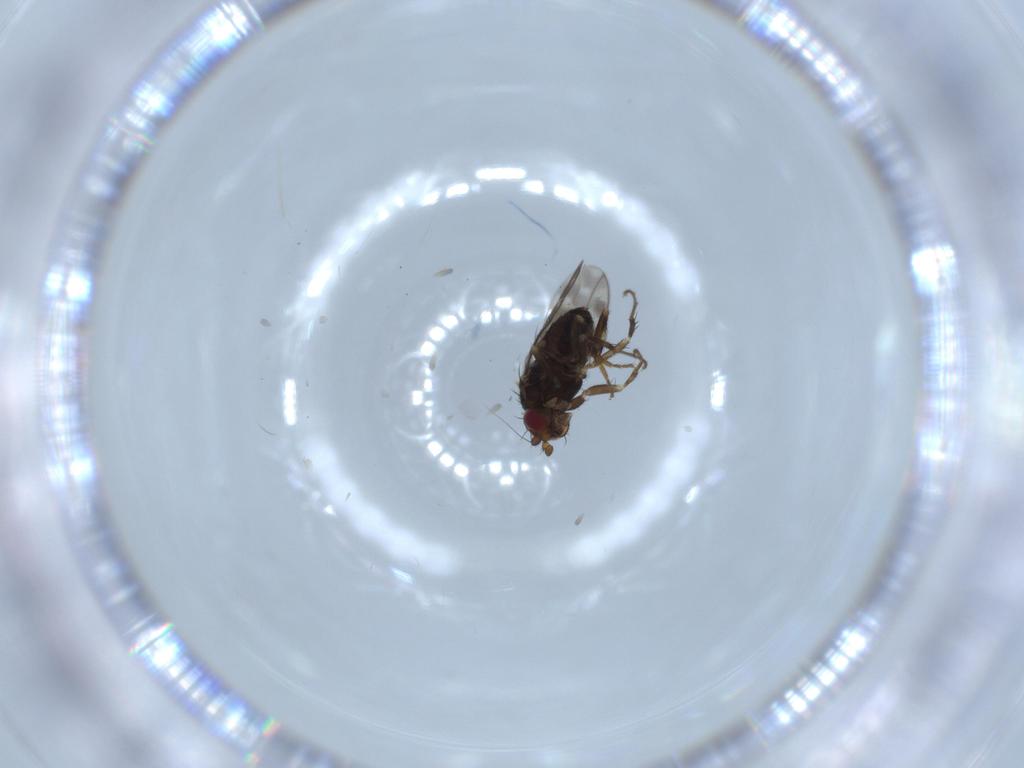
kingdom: Animalia
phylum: Arthropoda
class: Insecta
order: Diptera
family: Sphaeroceridae
